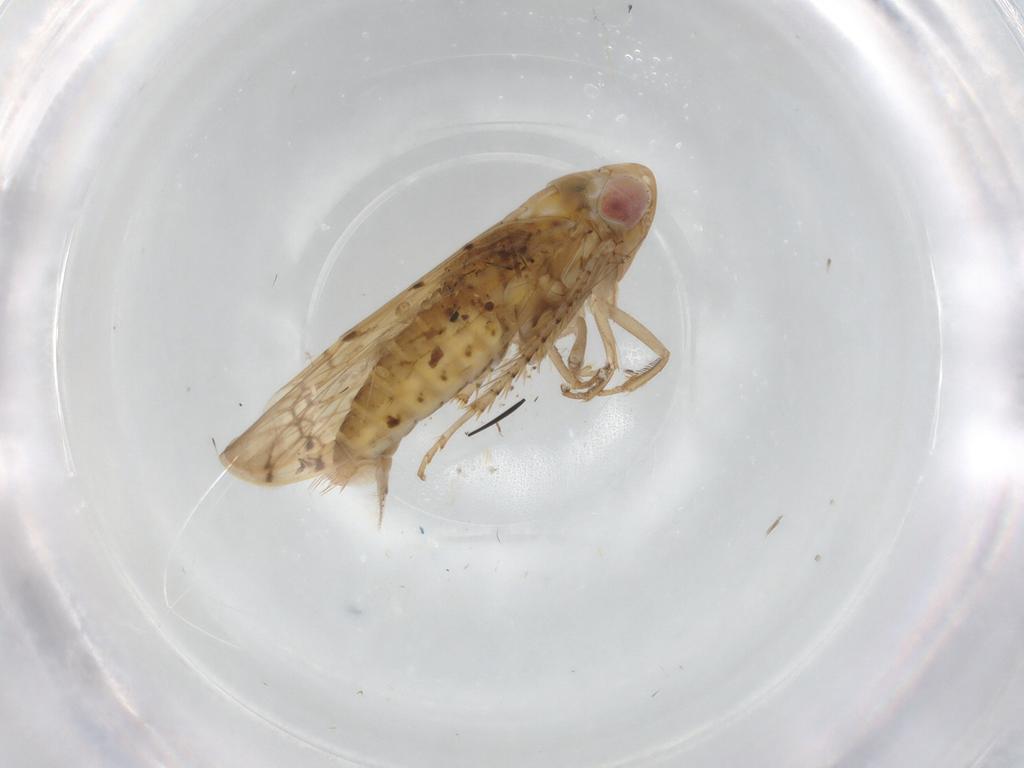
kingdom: Animalia
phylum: Arthropoda
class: Insecta
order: Hemiptera
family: Cicadellidae
